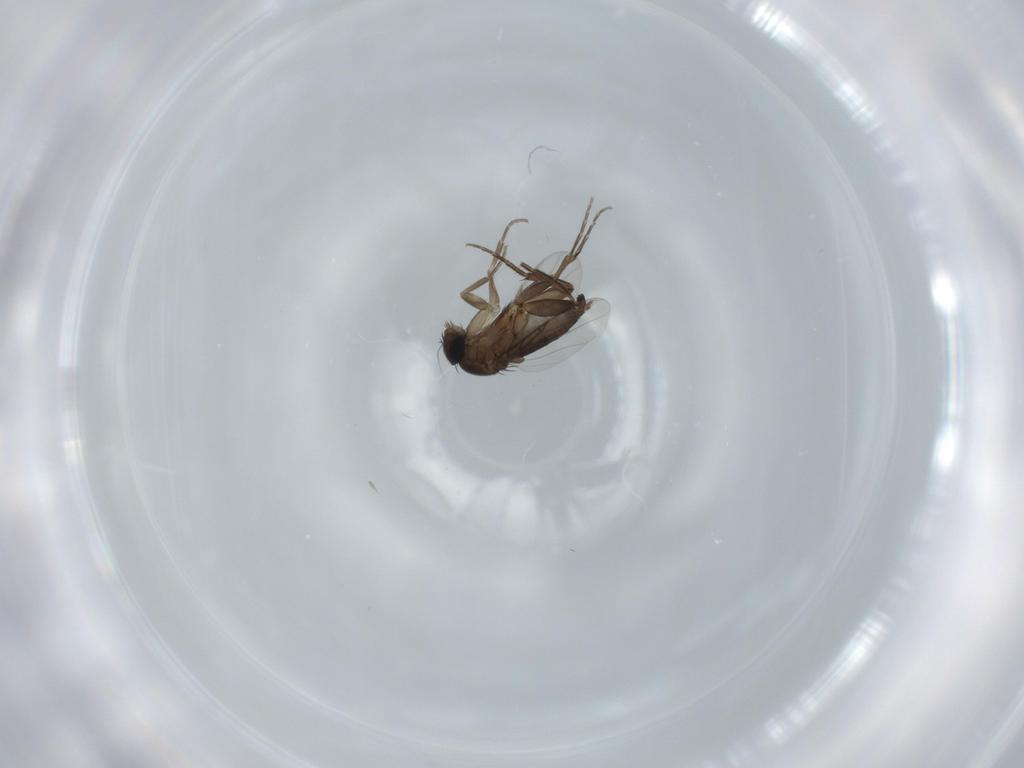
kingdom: Animalia
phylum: Arthropoda
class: Insecta
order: Diptera
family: Phoridae
